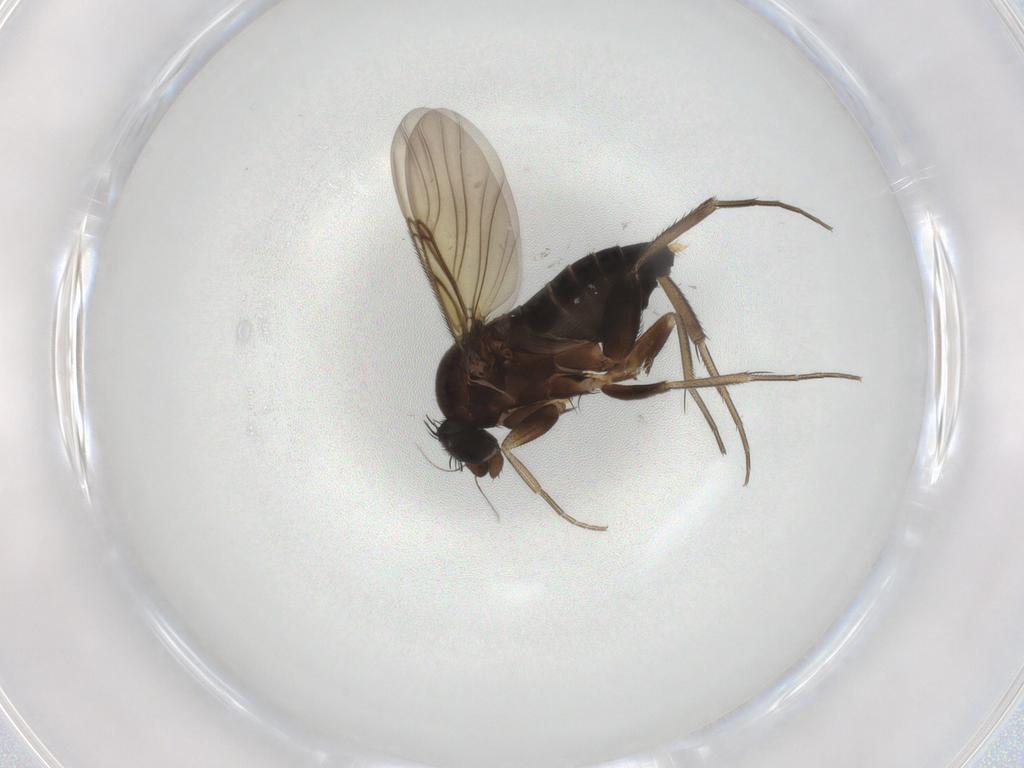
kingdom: Animalia
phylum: Arthropoda
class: Insecta
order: Diptera
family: Phoridae
